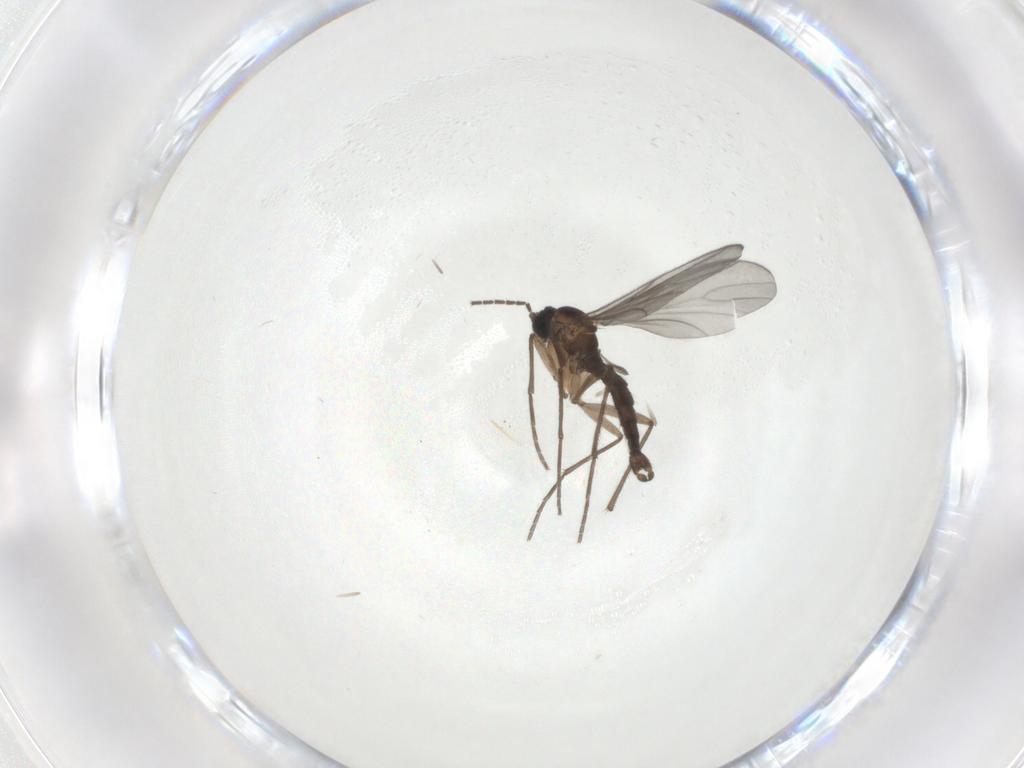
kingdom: Animalia
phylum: Arthropoda
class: Insecta
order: Diptera
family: Sciaridae
